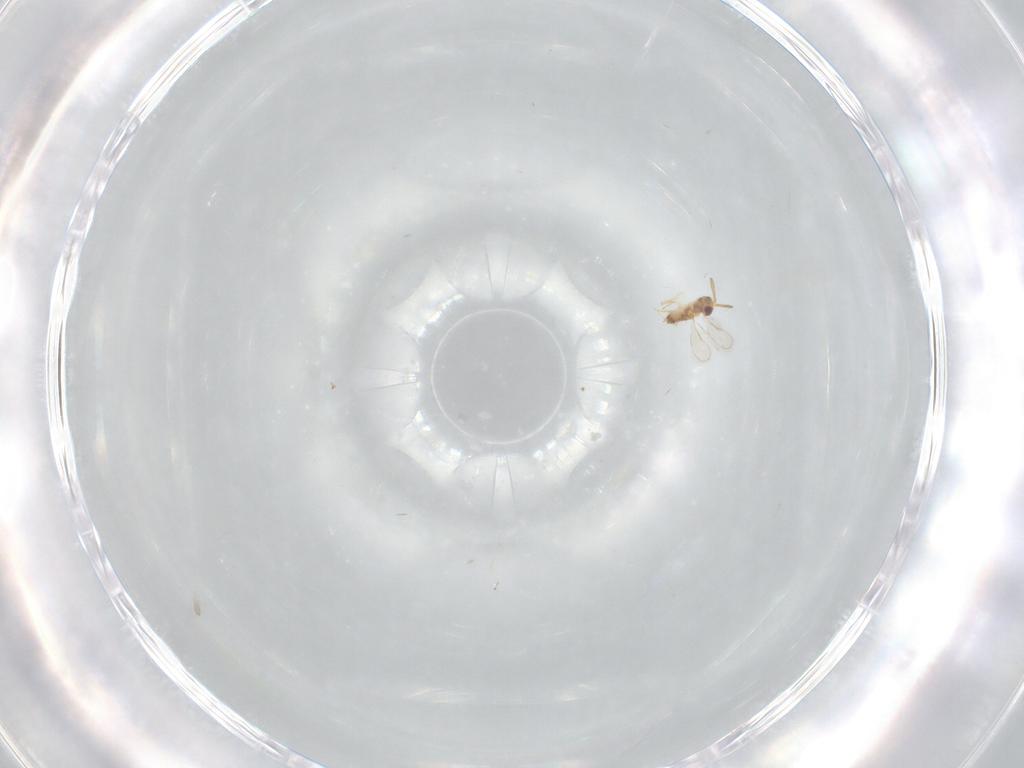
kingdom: Animalia
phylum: Arthropoda
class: Insecta
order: Hymenoptera
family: Aphelinidae
